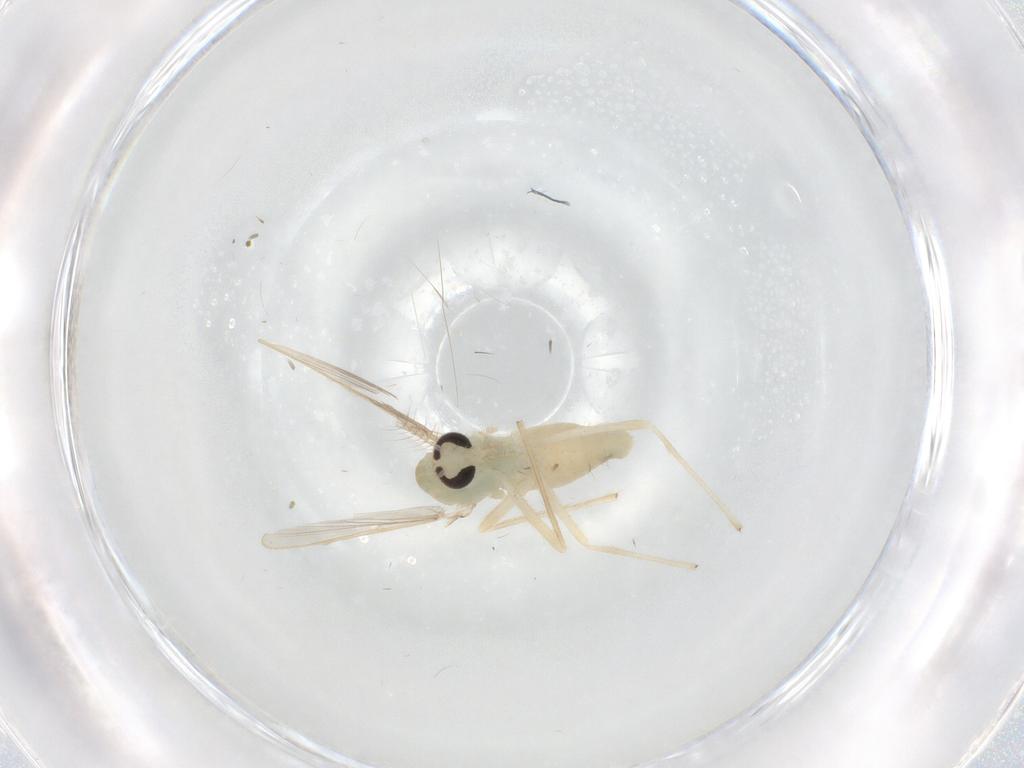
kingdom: Animalia
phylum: Arthropoda
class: Insecta
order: Diptera
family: Chironomidae
